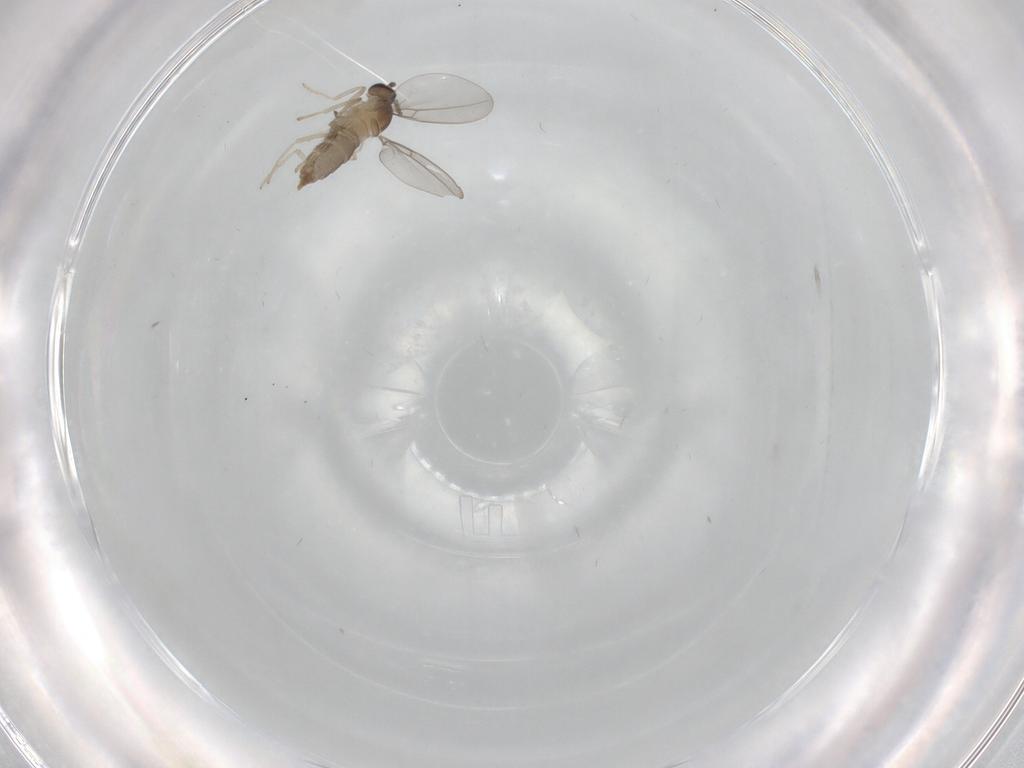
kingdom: Animalia
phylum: Arthropoda
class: Insecta
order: Diptera
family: Cecidomyiidae
